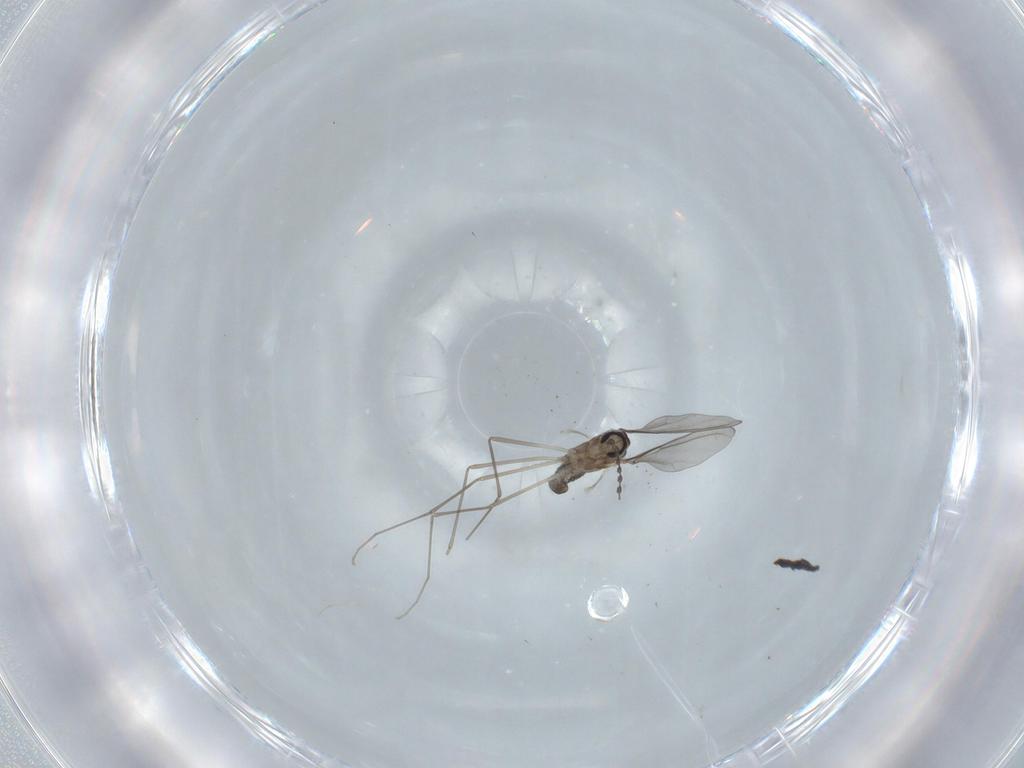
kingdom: Animalia
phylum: Arthropoda
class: Insecta
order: Diptera
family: Cecidomyiidae
